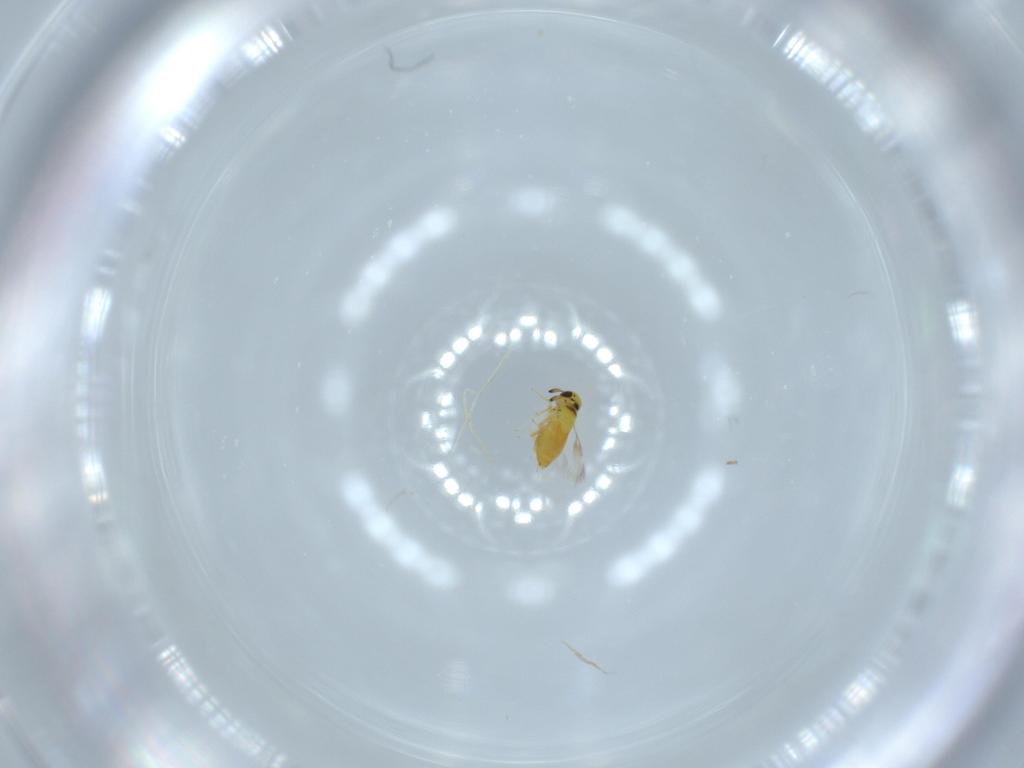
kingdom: Animalia
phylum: Arthropoda
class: Insecta
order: Hymenoptera
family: Signiphoridae
